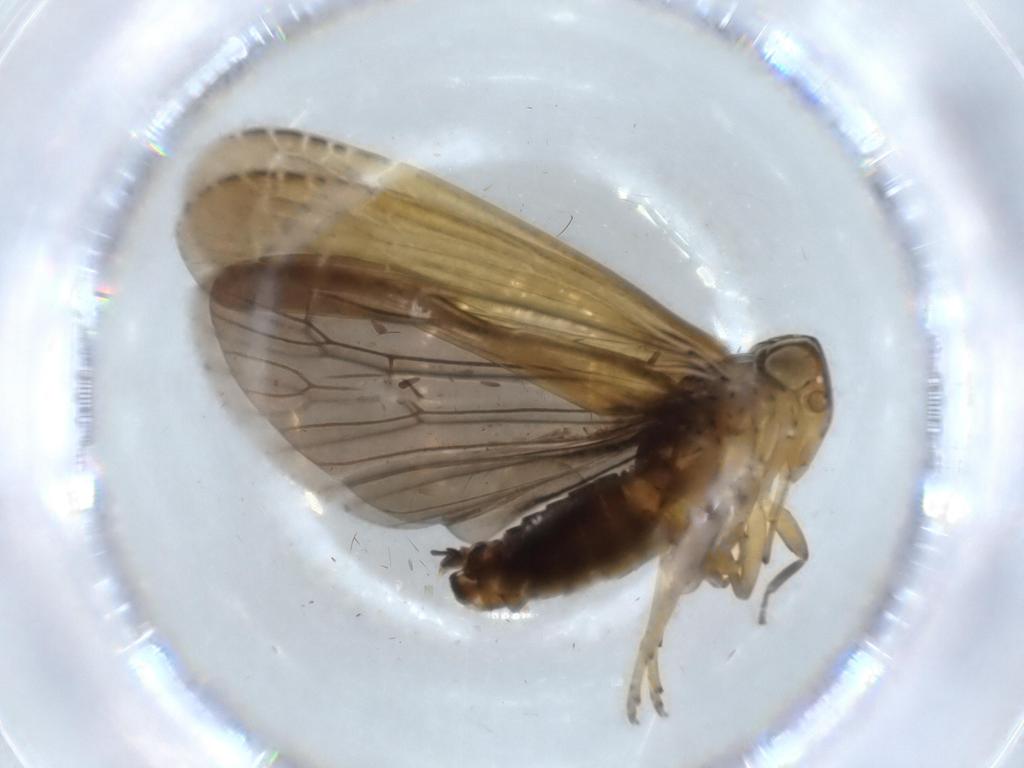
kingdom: Animalia
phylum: Arthropoda
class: Insecta
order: Hemiptera
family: Achilidae
